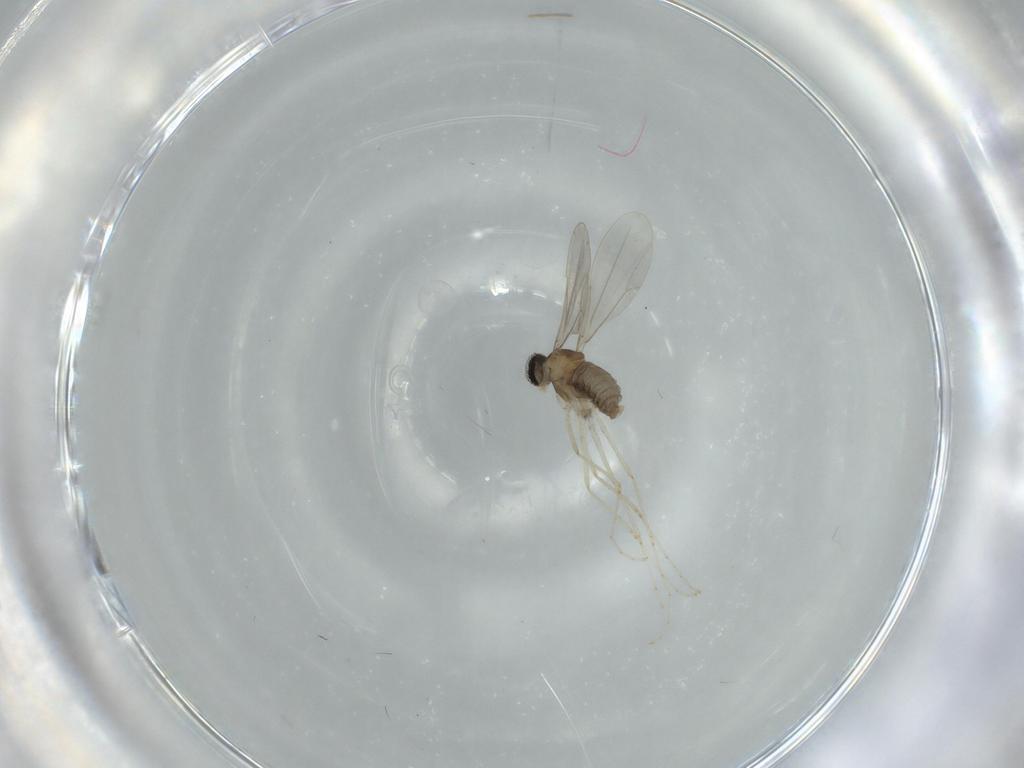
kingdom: Animalia
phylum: Arthropoda
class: Insecta
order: Diptera
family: Cecidomyiidae
